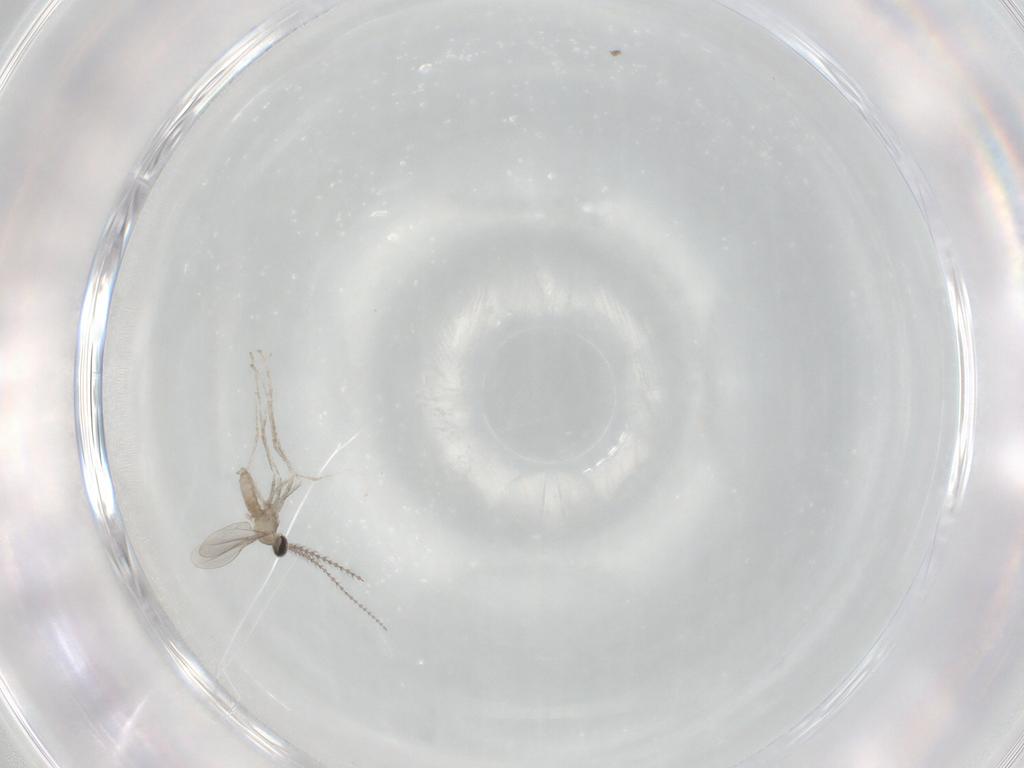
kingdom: Animalia
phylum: Arthropoda
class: Insecta
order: Diptera
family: Cecidomyiidae
